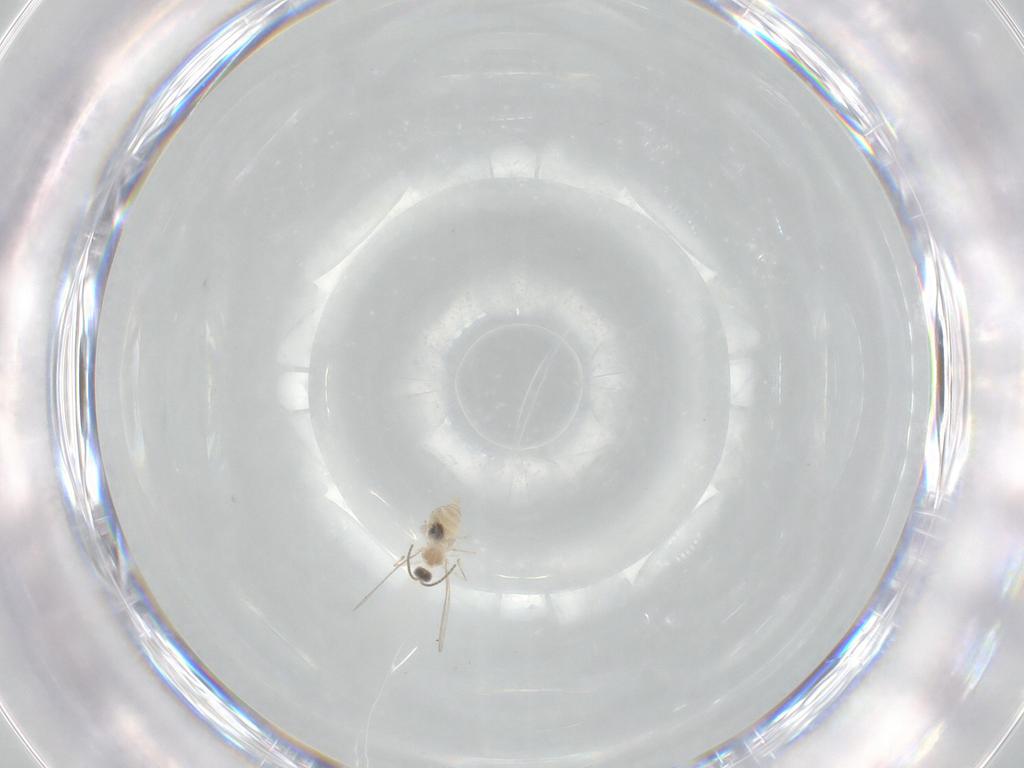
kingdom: Animalia
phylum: Arthropoda
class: Insecta
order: Diptera
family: Cecidomyiidae
